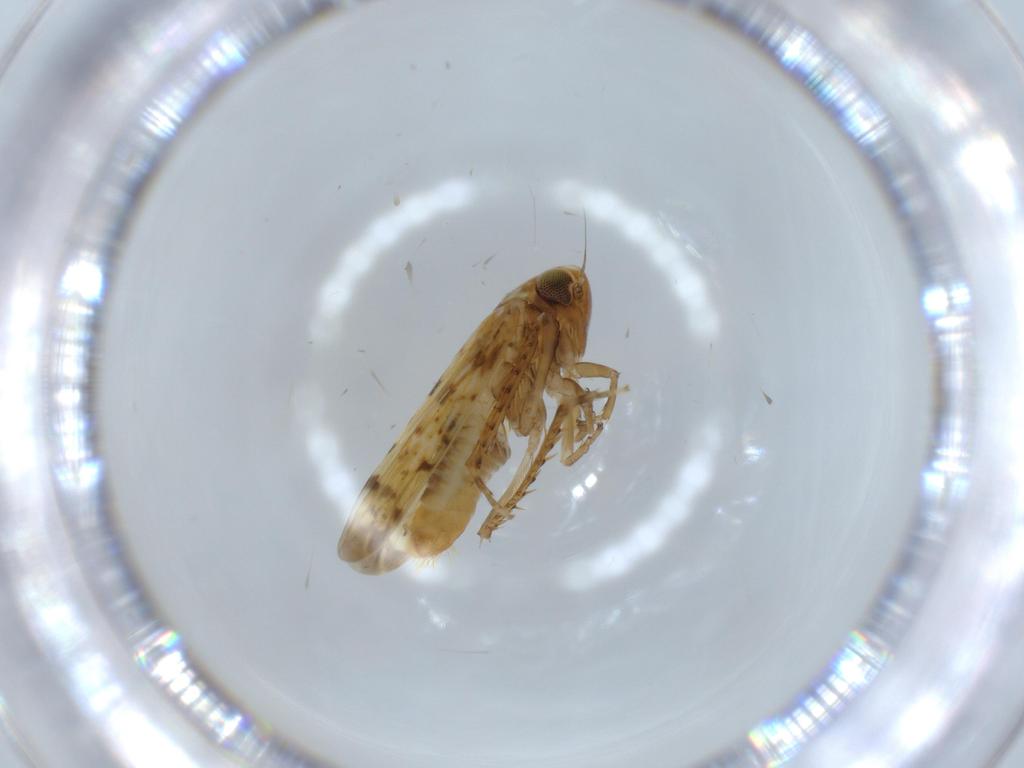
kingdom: Animalia
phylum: Arthropoda
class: Insecta
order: Hemiptera
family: Cicadellidae
